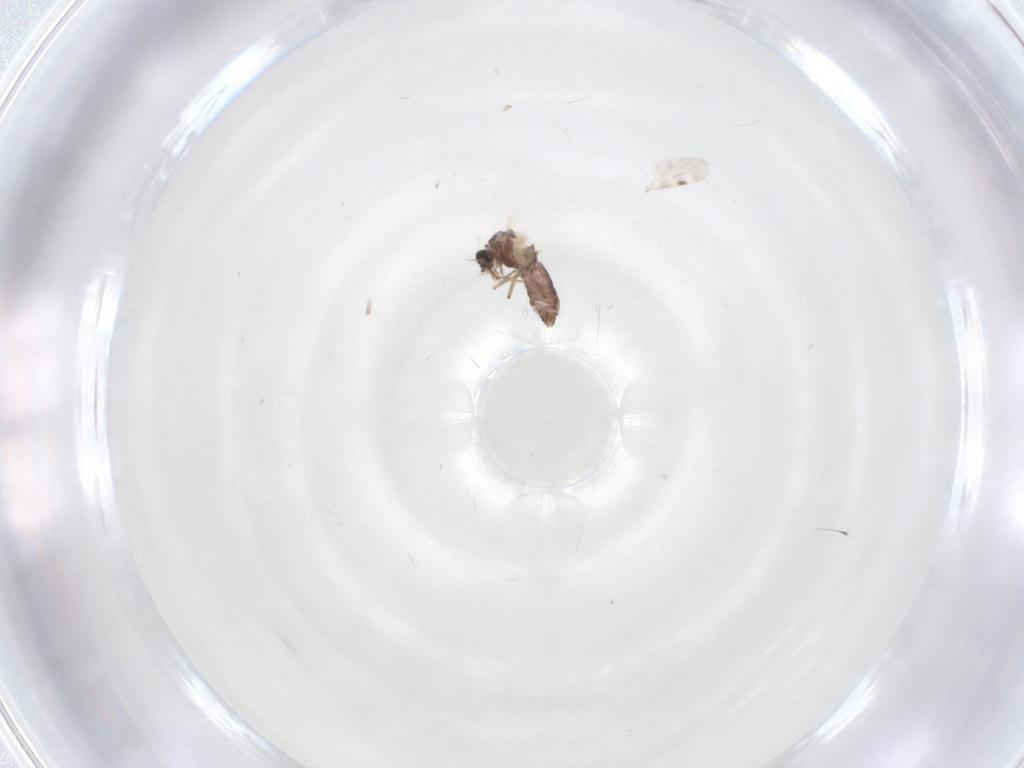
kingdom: Animalia
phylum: Arthropoda
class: Insecta
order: Diptera
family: Sciaridae
